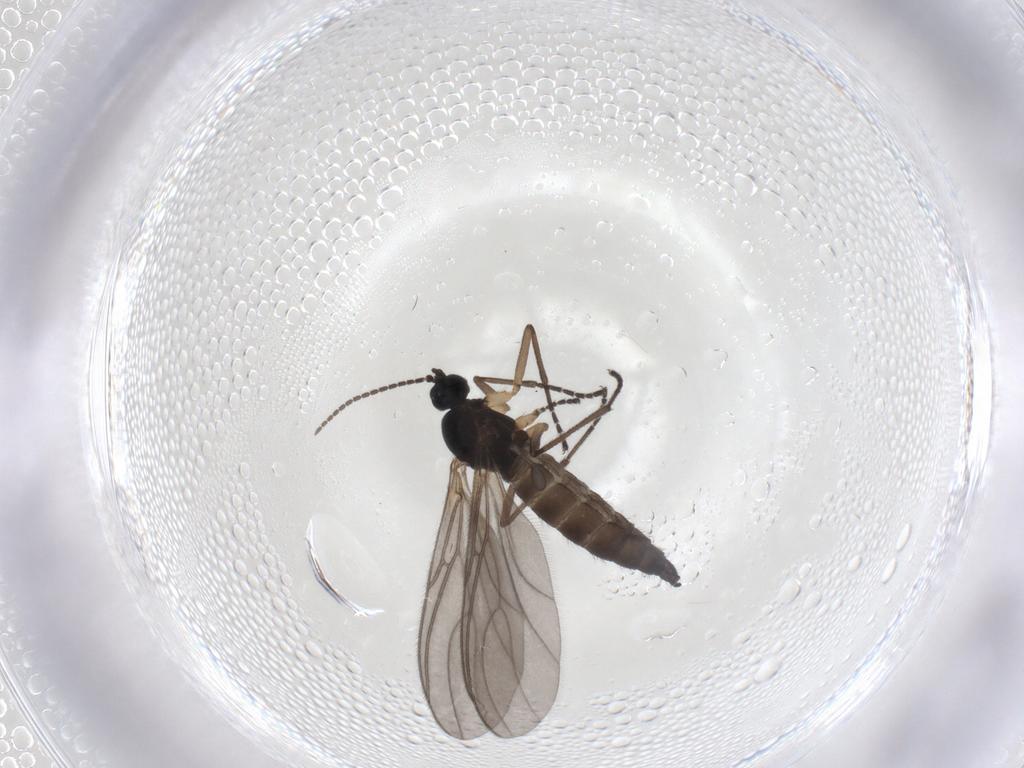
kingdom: Animalia
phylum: Arthropoda
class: Insecta
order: Diptera
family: Sciaridae
